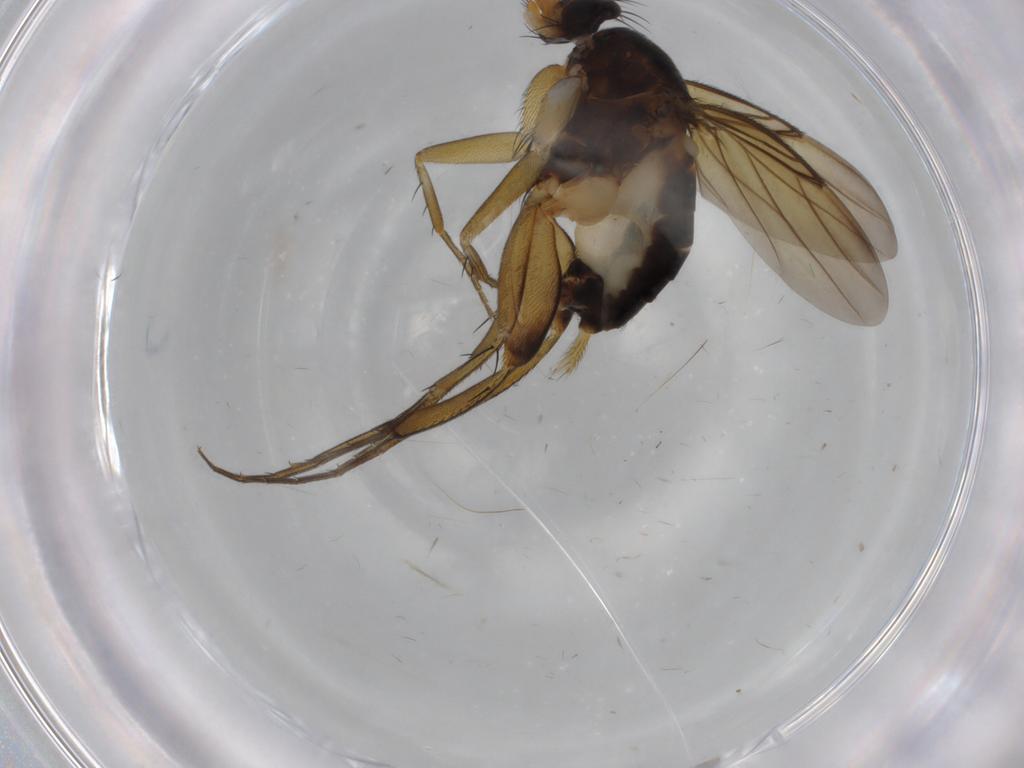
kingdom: Animalia
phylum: Arthropoda
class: Insecta
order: Diptera
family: Phoridae
